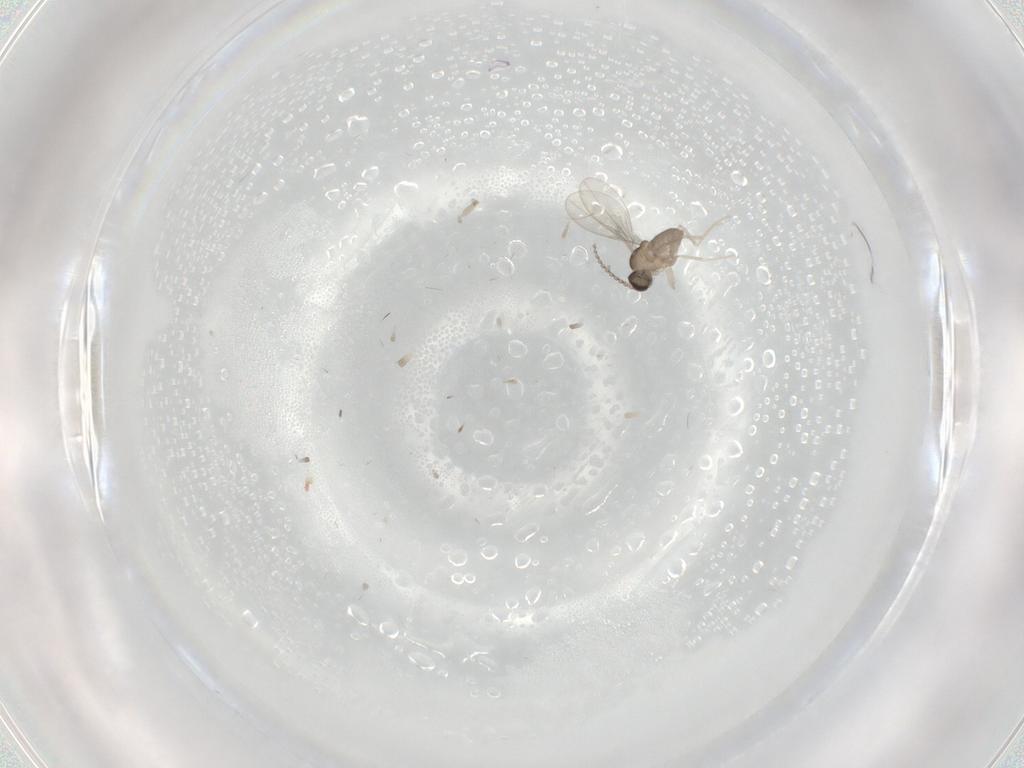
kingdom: Animalia
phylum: Arthropoda
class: Insecta
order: Diptera
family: Cecidomyiidae
